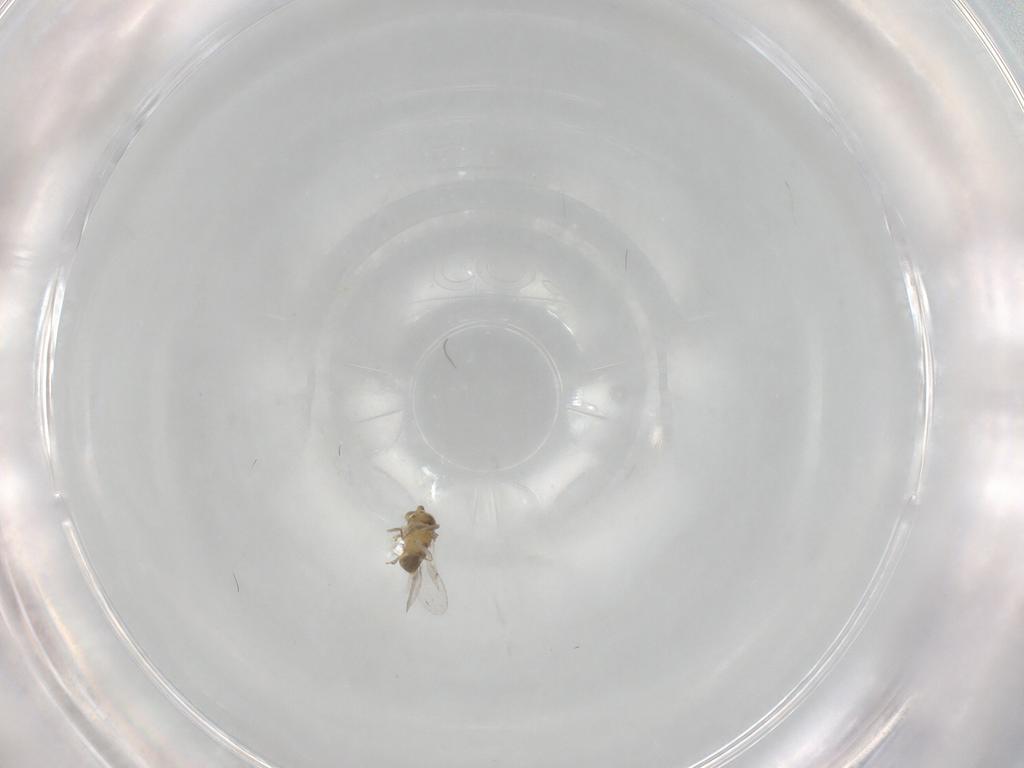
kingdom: Animalia
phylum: Arthropoda
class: Insecta
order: Hymenoptera
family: Encyrtidae
